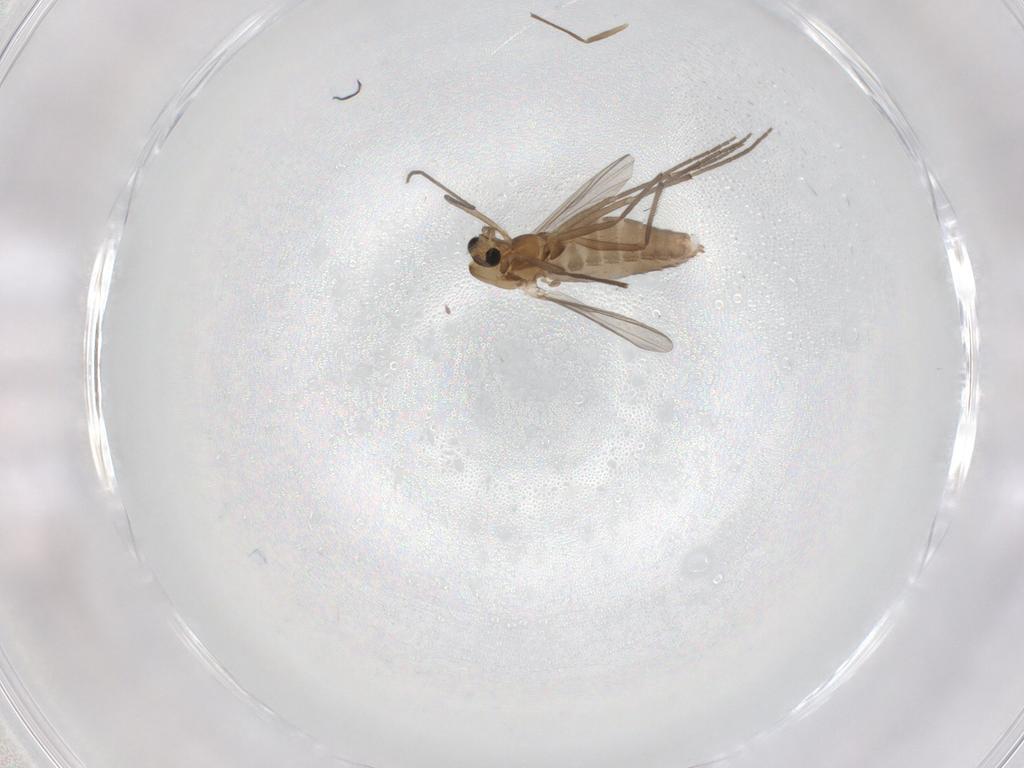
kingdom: Animalia
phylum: Arthropoda
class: Insecta
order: Diptera
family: Chironomidae
